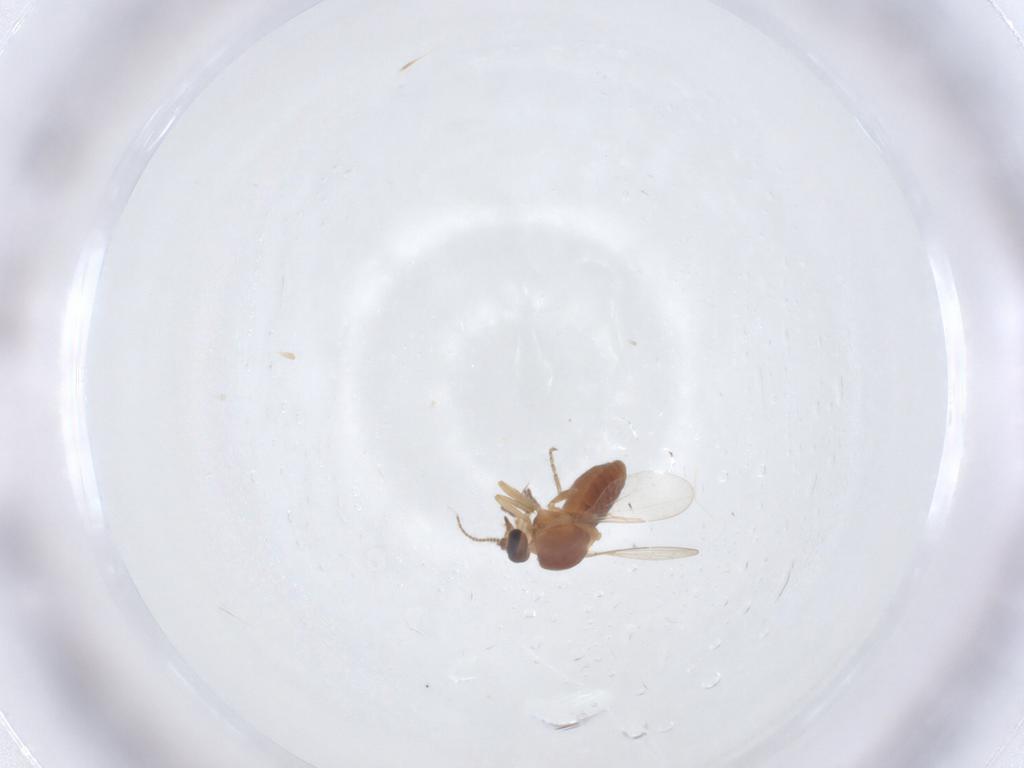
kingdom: Animalia
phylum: Arthropoda
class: Insecta
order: Diptera
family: Ceratopogonidae
